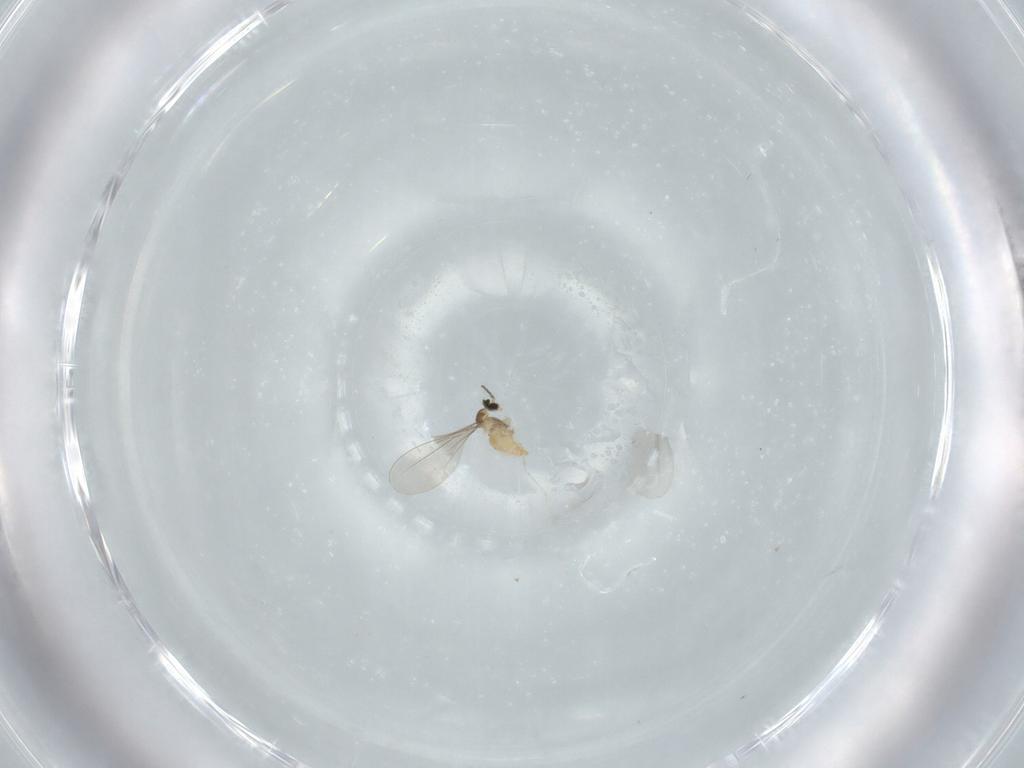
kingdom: Animalia
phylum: Arthropoda
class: Insecta
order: Diptera
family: Cecidomyiidae
